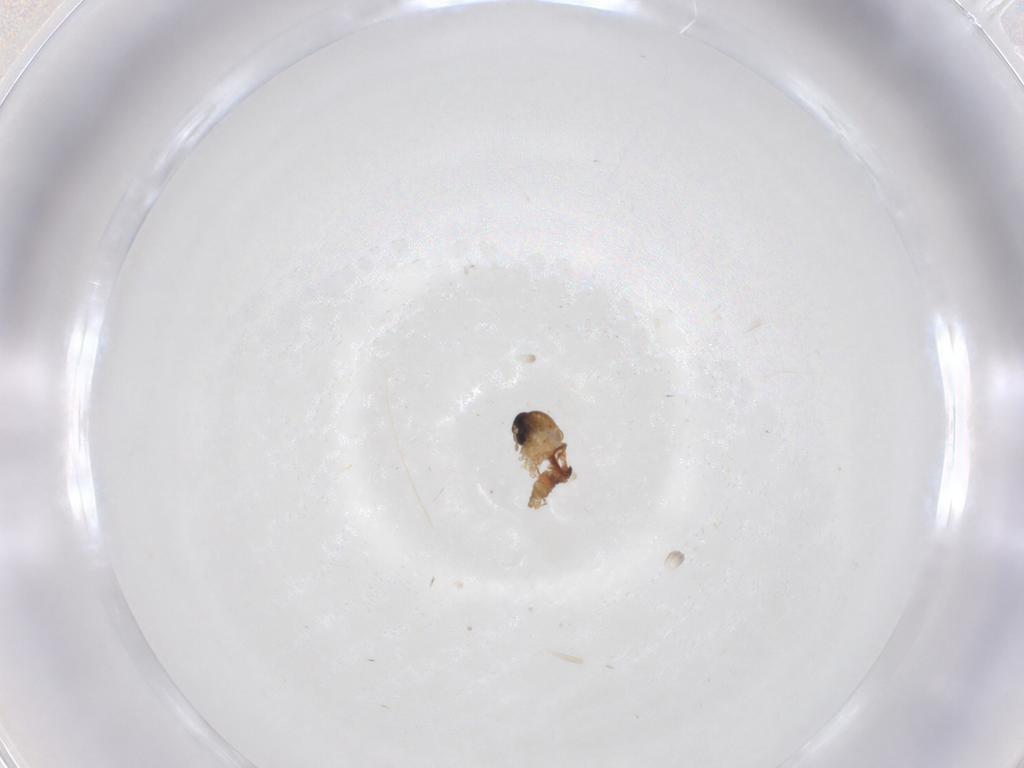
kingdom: Animalia
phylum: Arthropoda
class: Insecta
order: Diptera
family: Psychodidae
